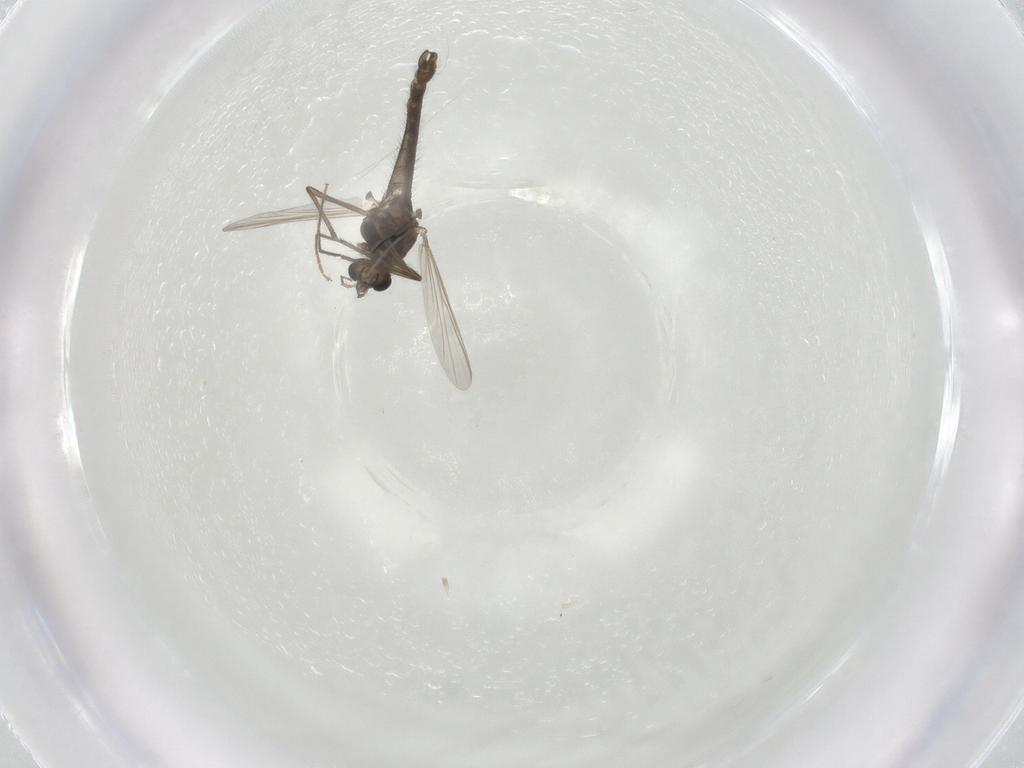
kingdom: Animalia
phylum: Arthropoda
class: Insecta
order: Diptera
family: Chironomidae
